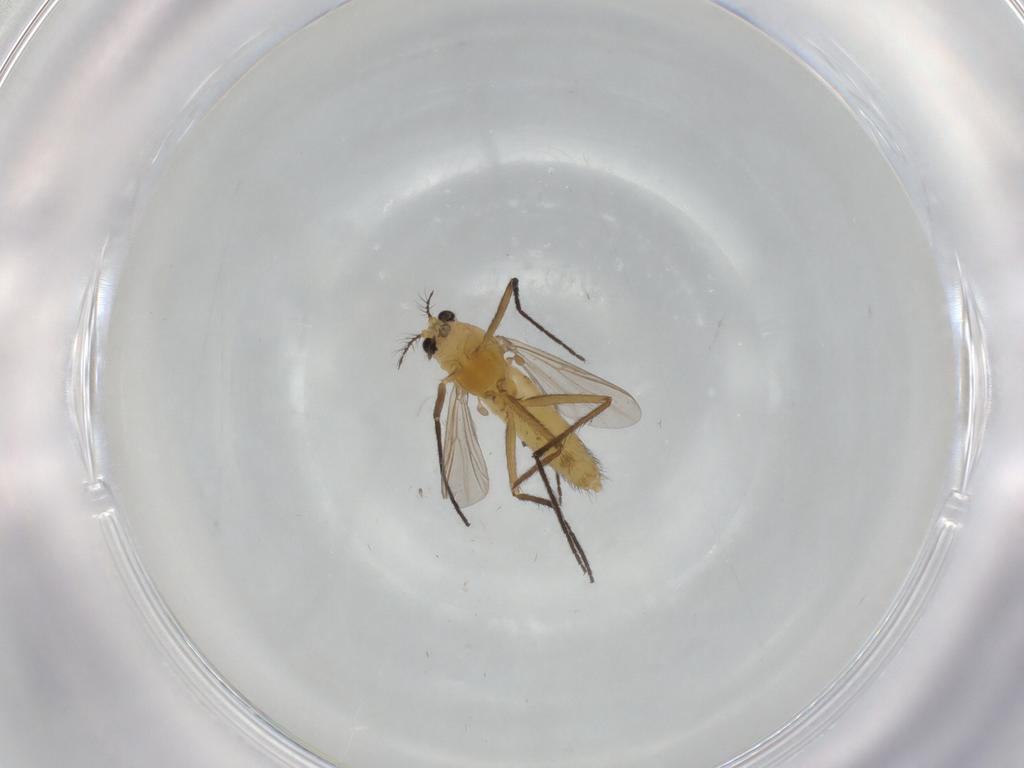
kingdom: Animalia
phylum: Arthropoda
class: Insecta
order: Diptera
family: Chironomidae
